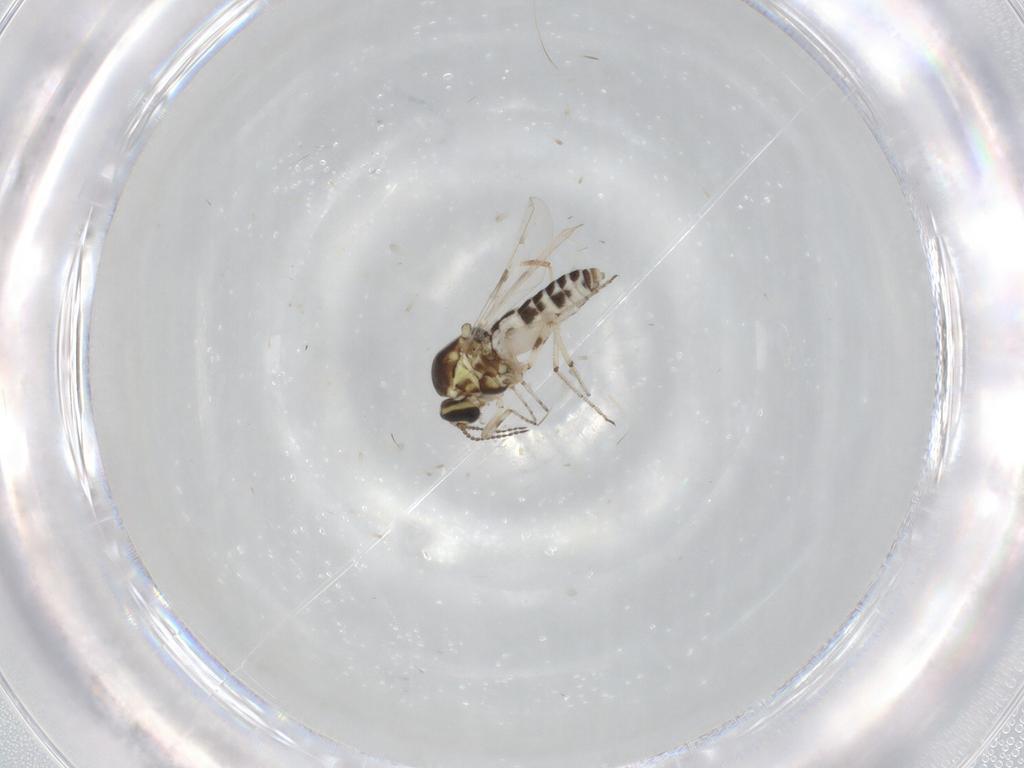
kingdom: Animalia
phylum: Arthropoda
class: Insecta
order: Diptera
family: Ceratopogonidae
